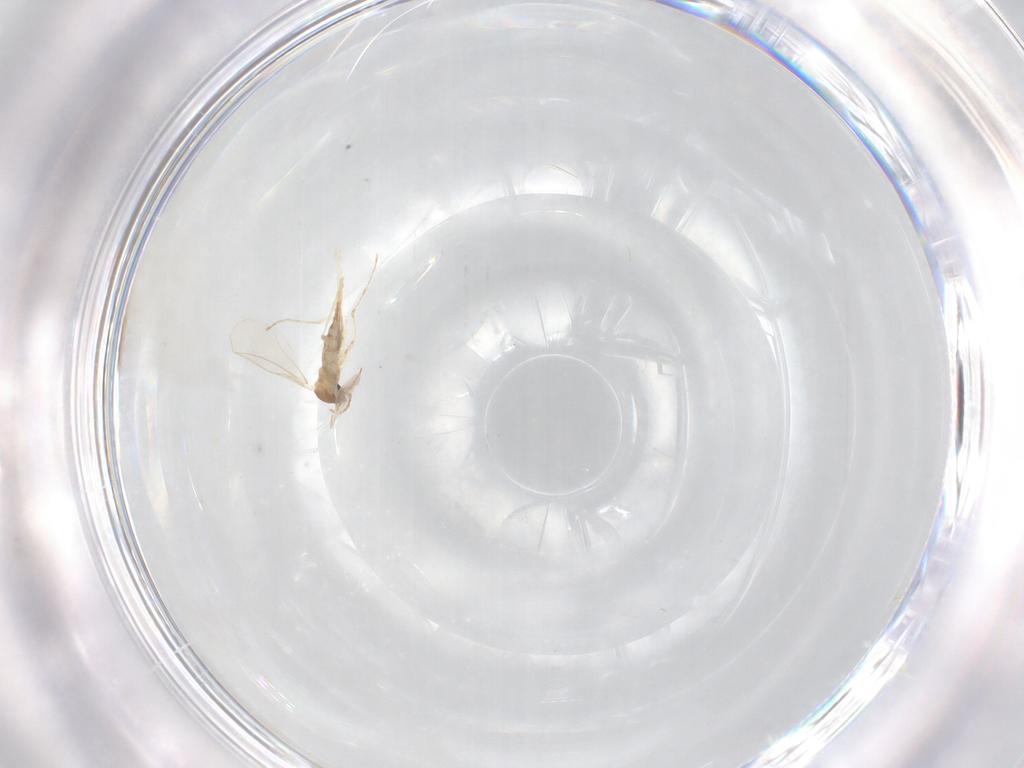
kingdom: Animalia
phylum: Arthropoda
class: Insecta
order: Diptera
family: Cecidomyiidae
